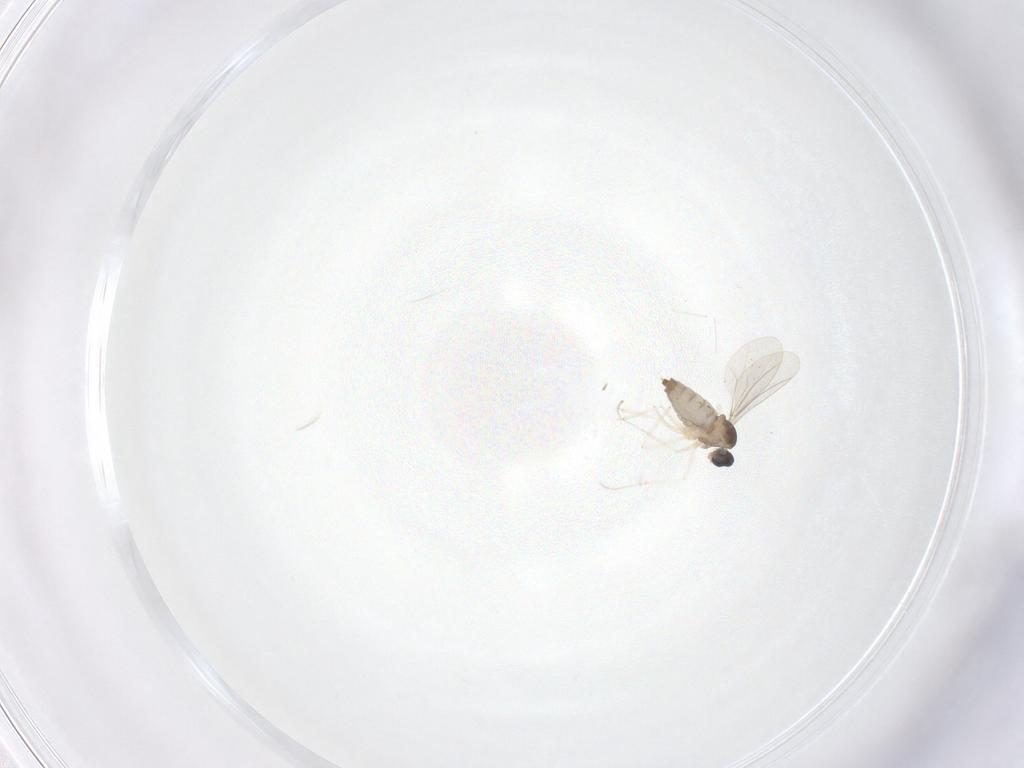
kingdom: Animalia
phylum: Arthropoda
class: Insecta
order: Diptera
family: Cecidomyiidae
